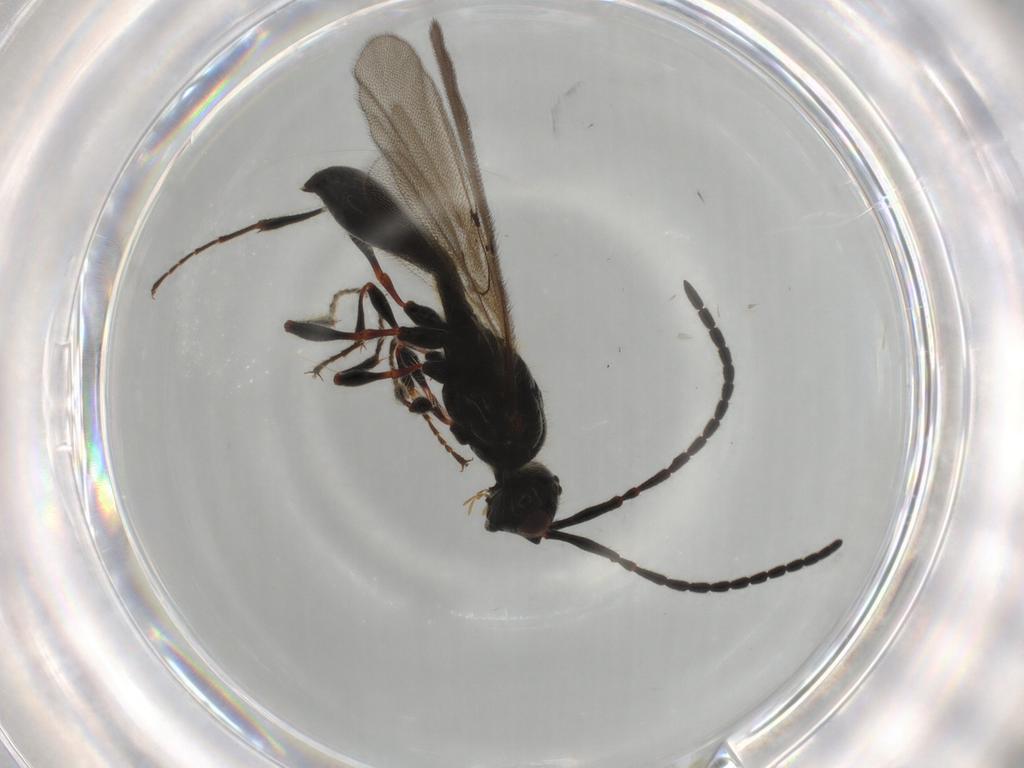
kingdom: Animalia
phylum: Arthropoda
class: Insecta
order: Hymenoptera
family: Diapriidae
